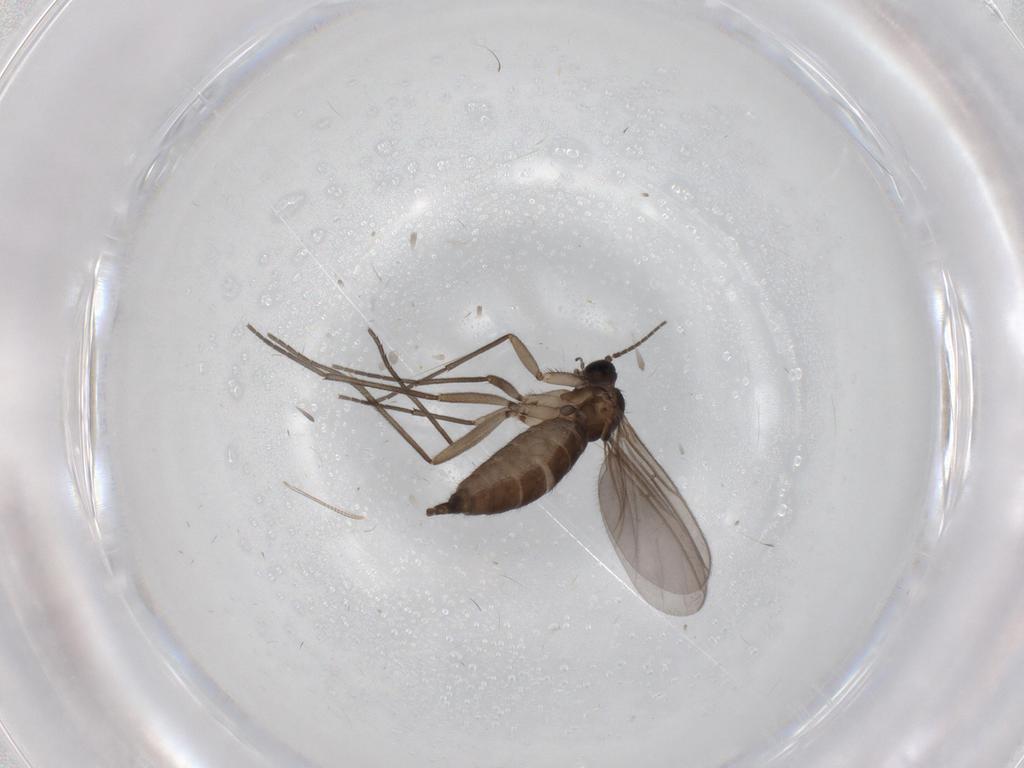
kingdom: Animalia
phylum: Arthropoda
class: Insecta
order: Diptera
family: Sciaridae
